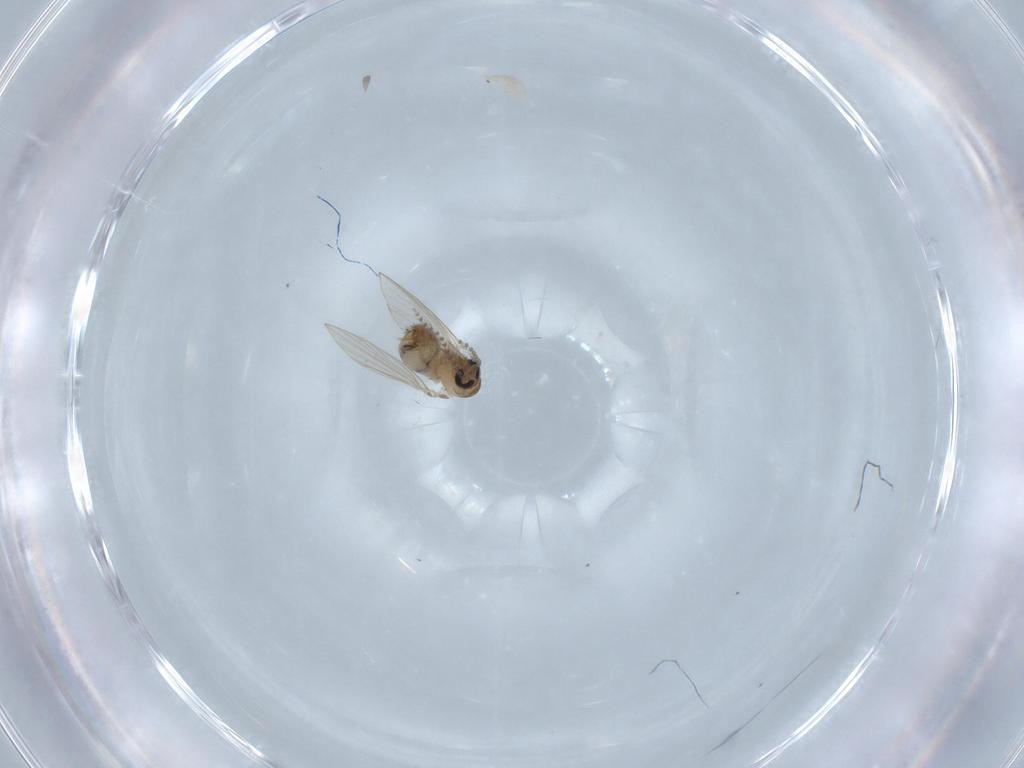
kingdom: Animalia
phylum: Arthropoda
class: Insecta
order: Diptera
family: Psychodidae
